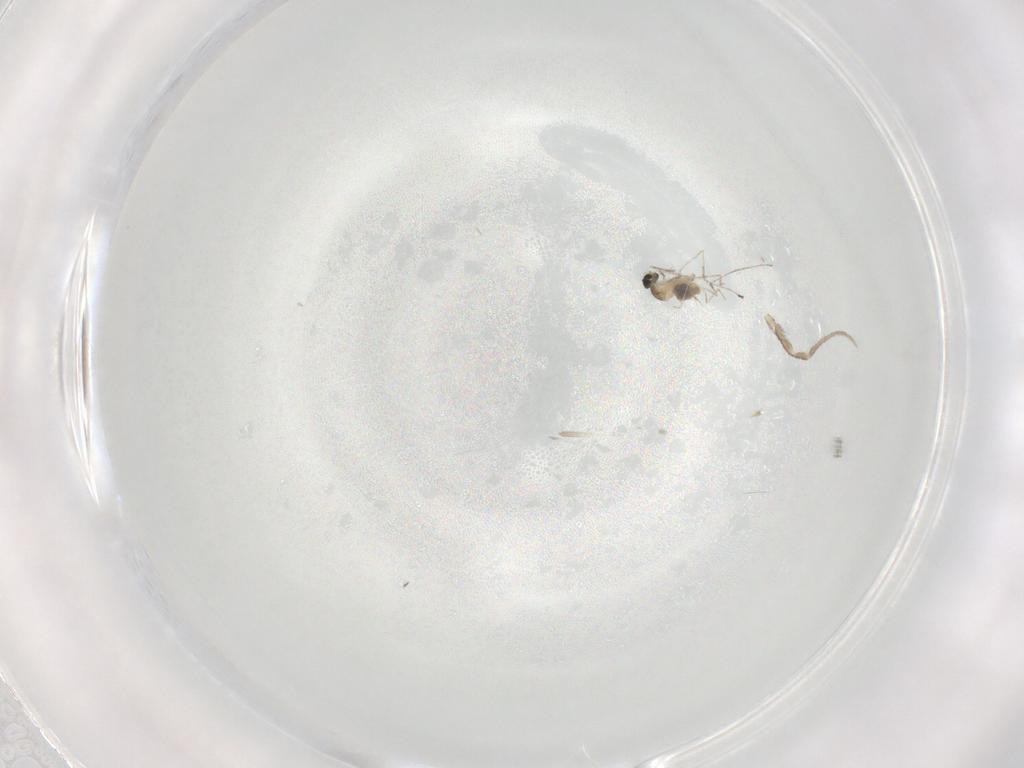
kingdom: Animalia
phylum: Arthropoda
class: Insecta
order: Diptera
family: Cecidomyiidae
